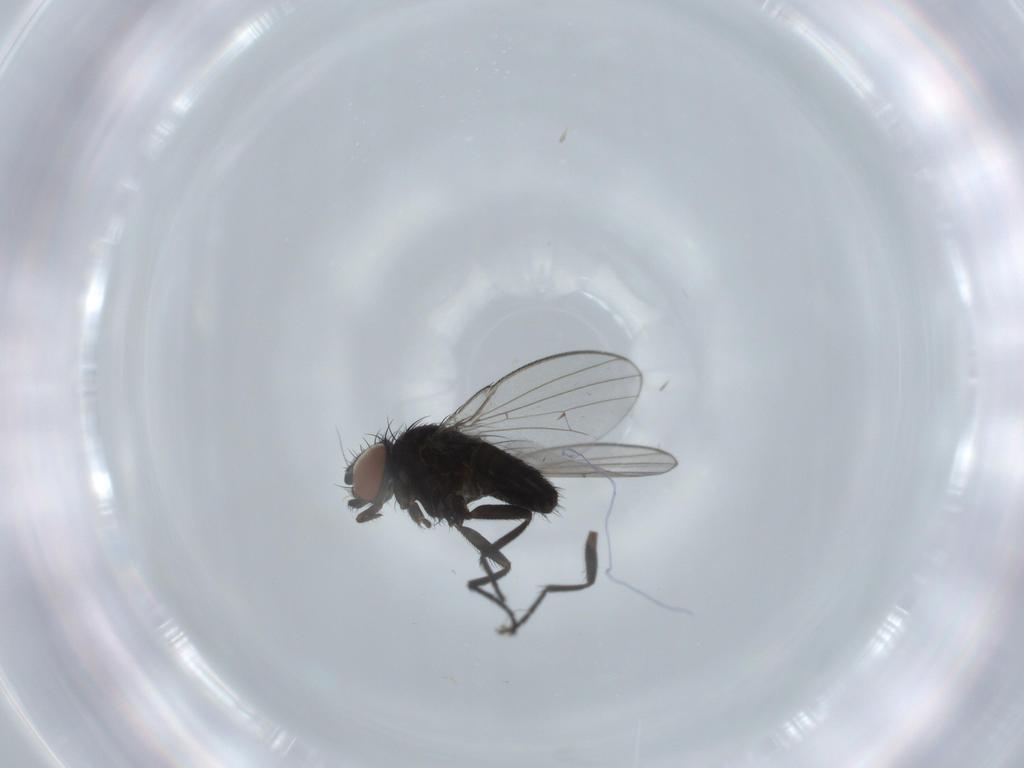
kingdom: Animalia
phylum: Arthropoda
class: Insecta
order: Diptera
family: Milichiidae
